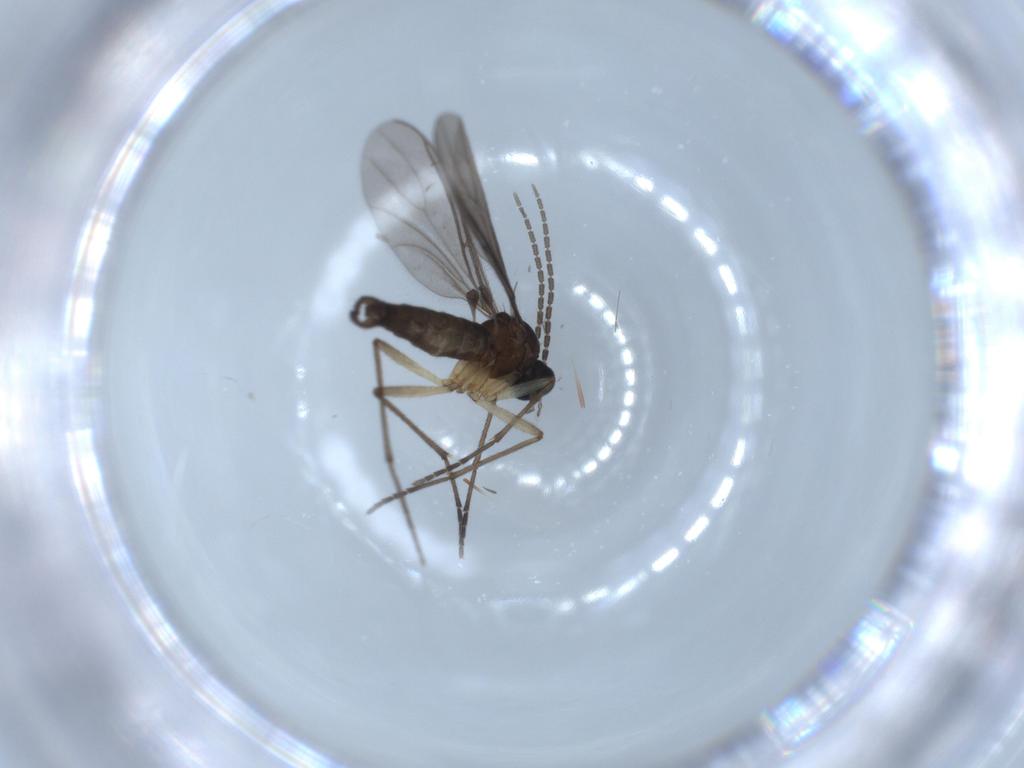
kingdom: Animalia
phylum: Arthropoda
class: Insecta
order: Diptera
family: Sciaridae
